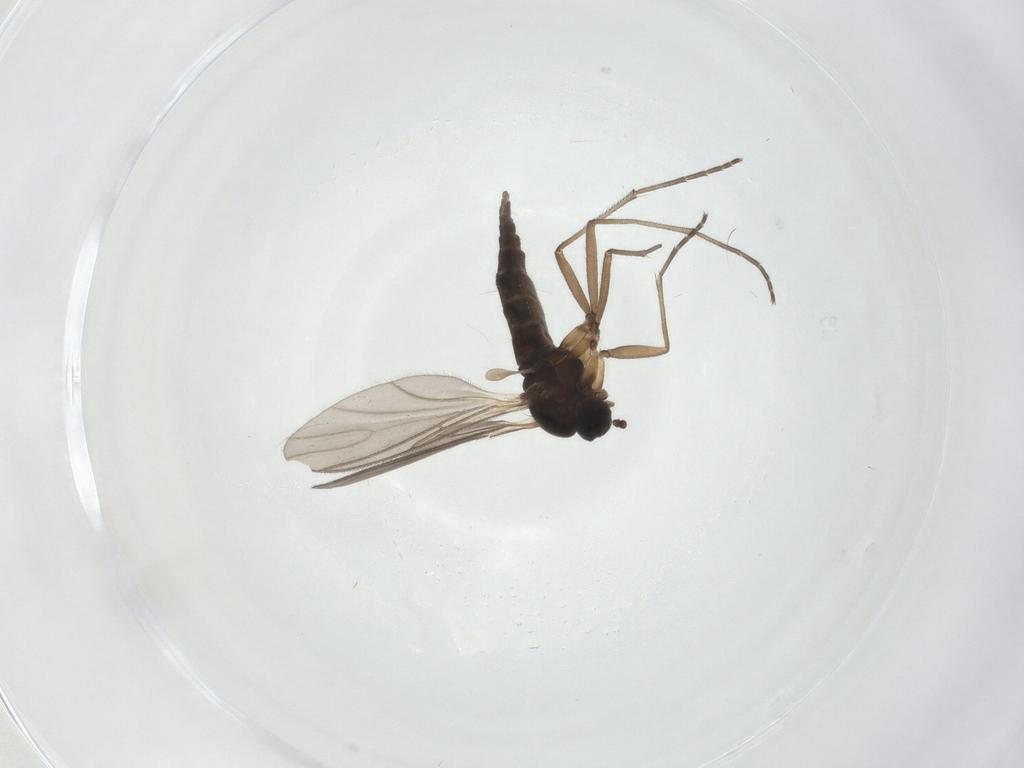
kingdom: Animalia
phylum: Arthropoda
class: Insecta
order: Diptera
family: Sciaridae
